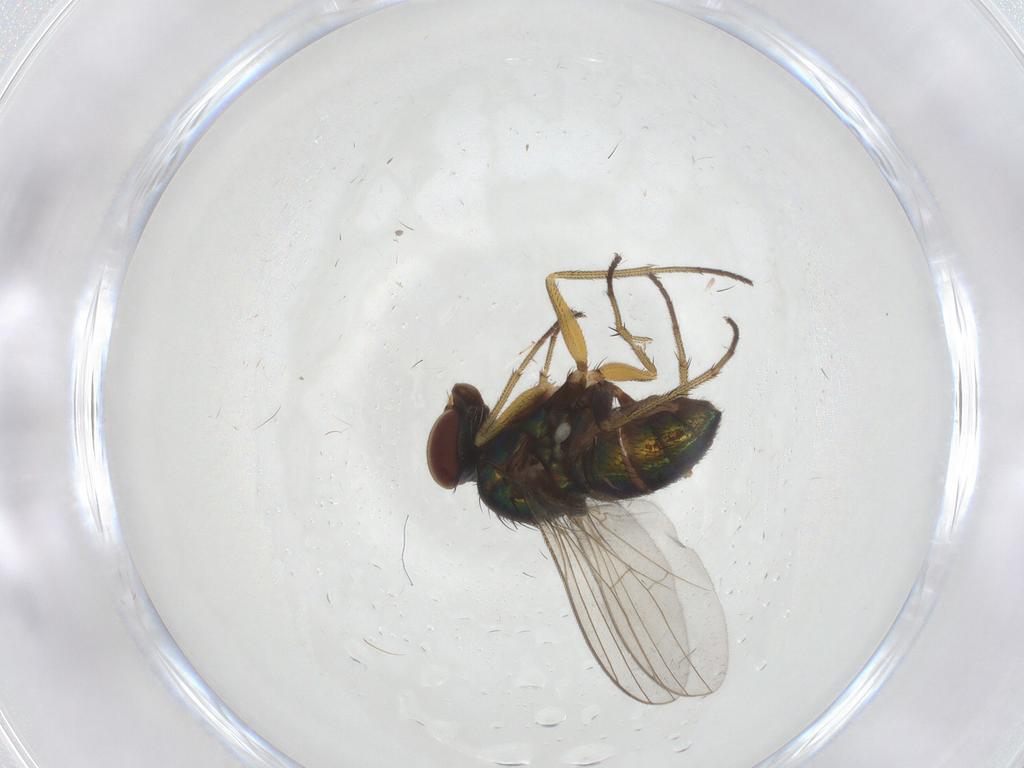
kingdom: Animalia
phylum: Arthropoda
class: Insecta
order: Diptera
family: Dolichopodidae
